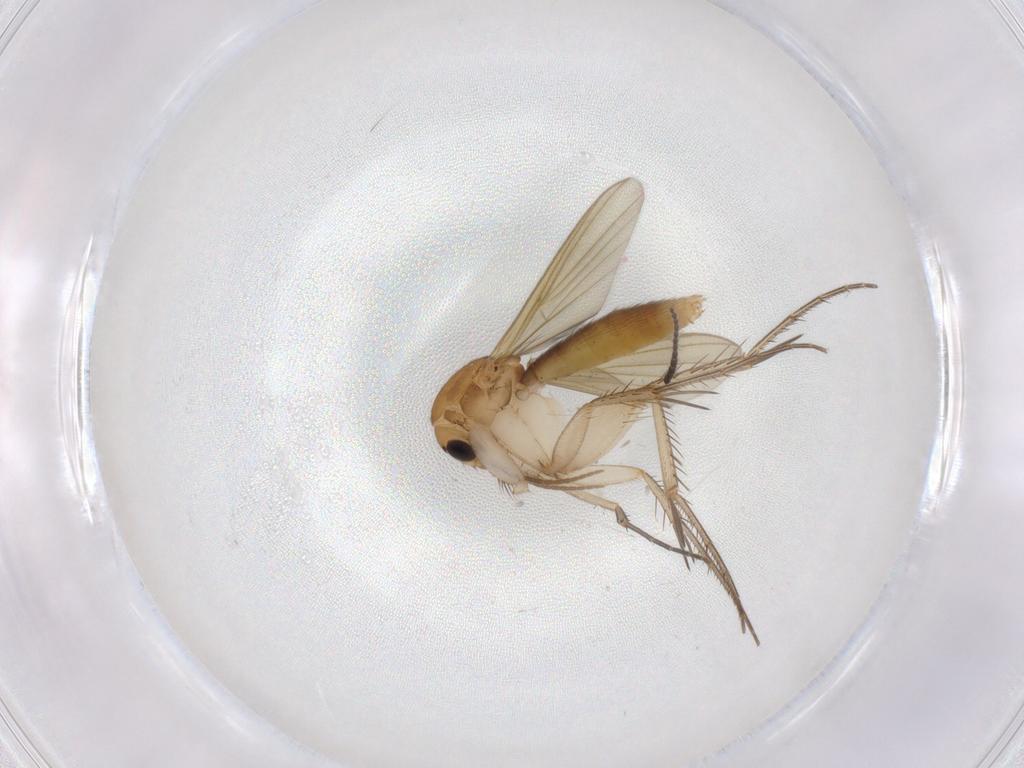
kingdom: Animalia
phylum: Arthropoda
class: Insecta
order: Diptera
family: Mycetophilidae
